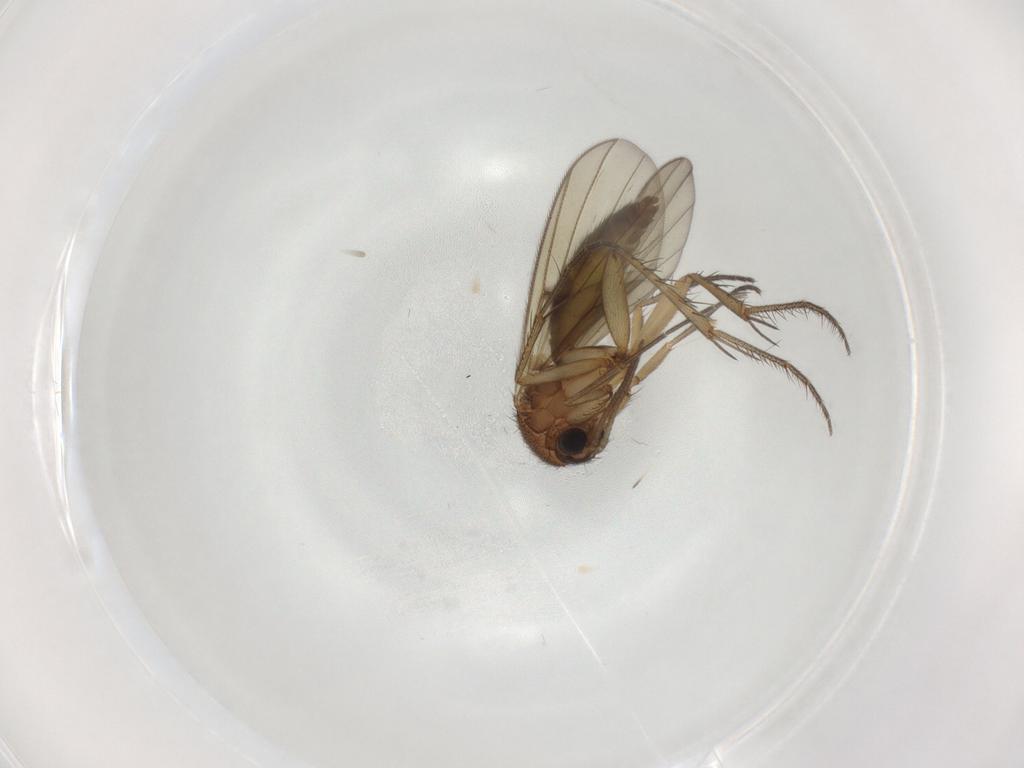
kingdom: Animalia
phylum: Arthropoda
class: Insecta
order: Diptera
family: Mycetophilidae
